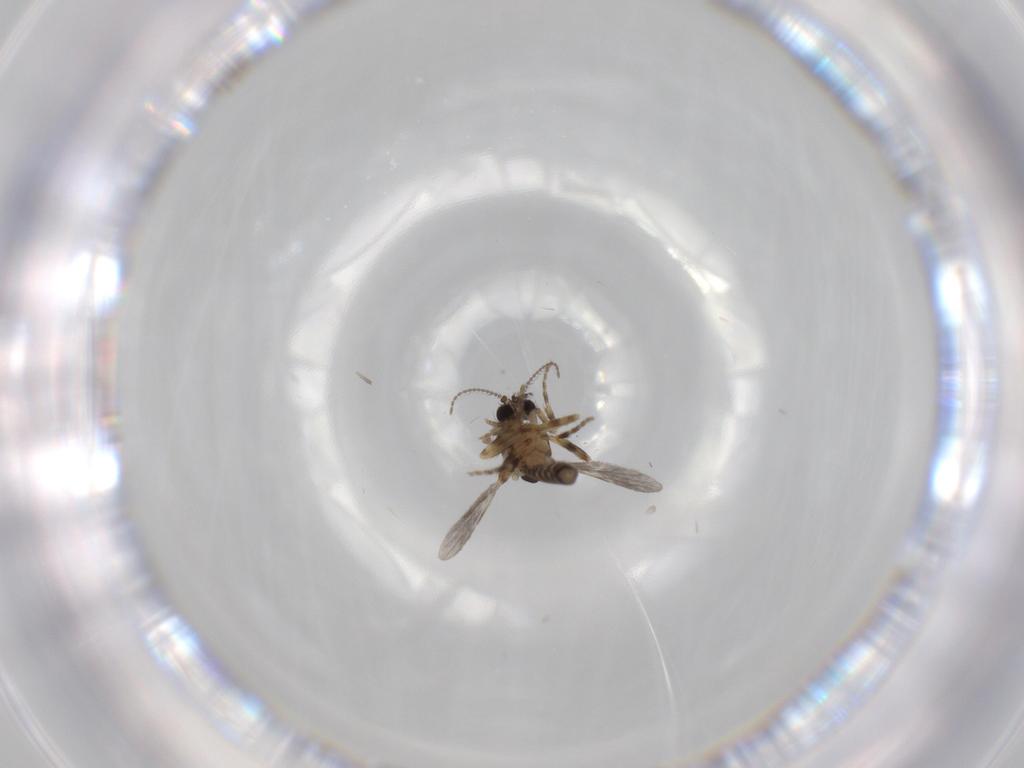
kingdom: Animalia
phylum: Arthropoda
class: Insecta
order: Diptera
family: Ceratopogonidae
